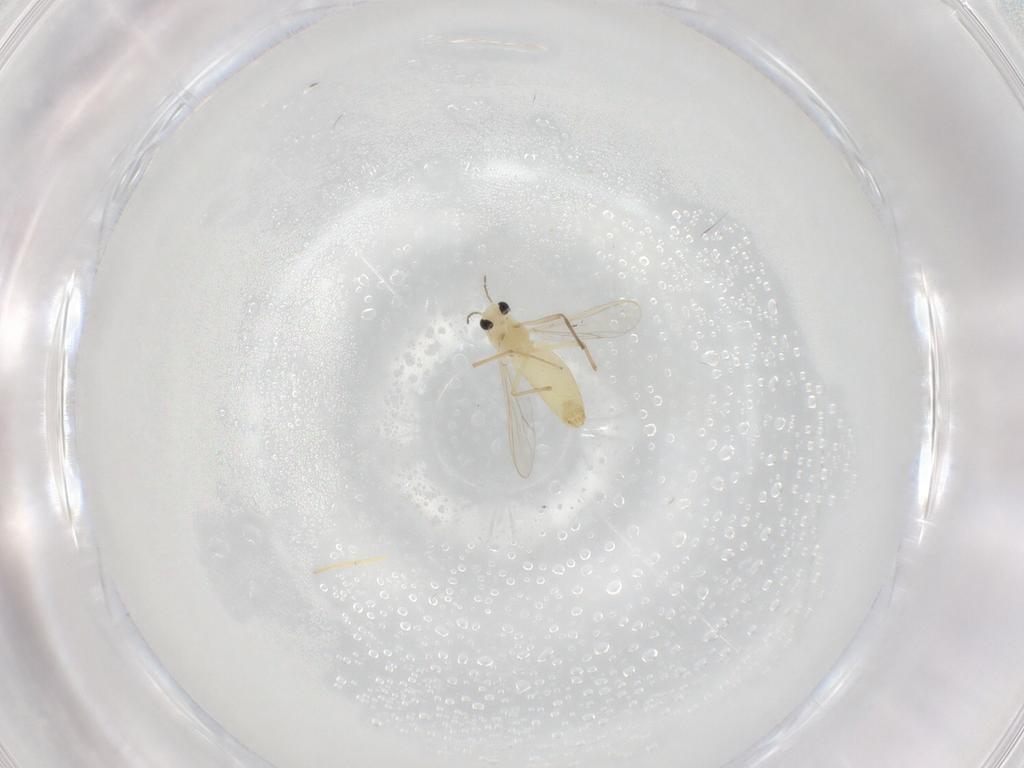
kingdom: Animalia
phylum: Arthropoda
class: Insecta
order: Diptera
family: Chironomidae
